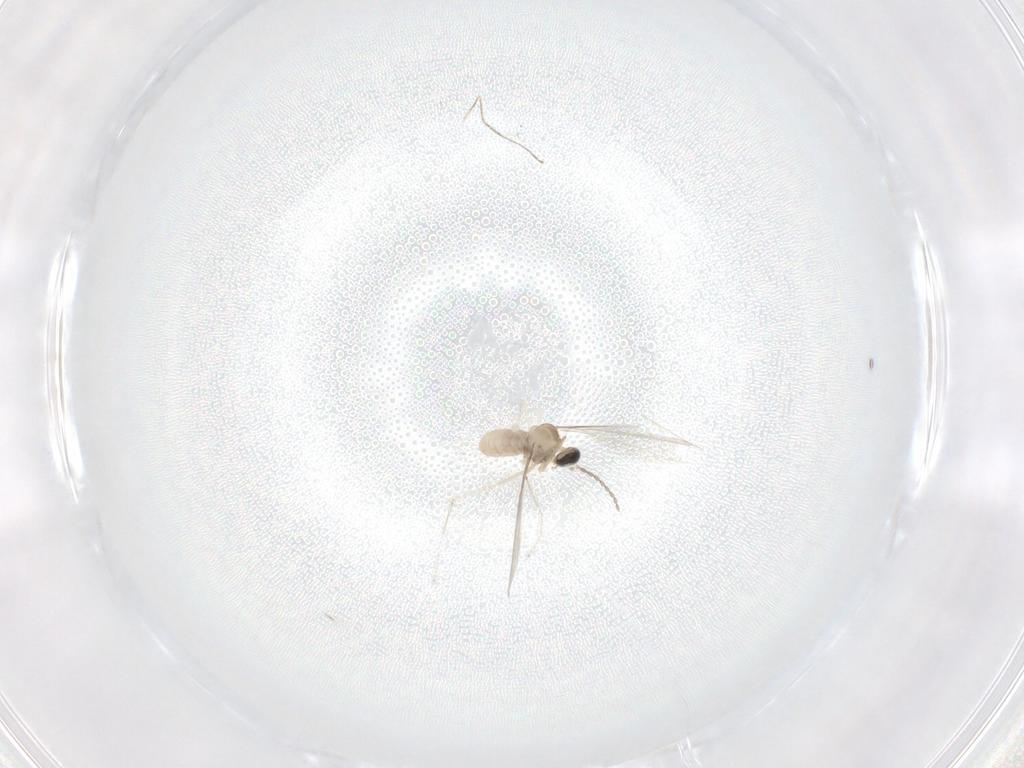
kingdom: Animalia
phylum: Arthropoda
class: Insecta
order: Diptera
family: Cecidomyiidae
